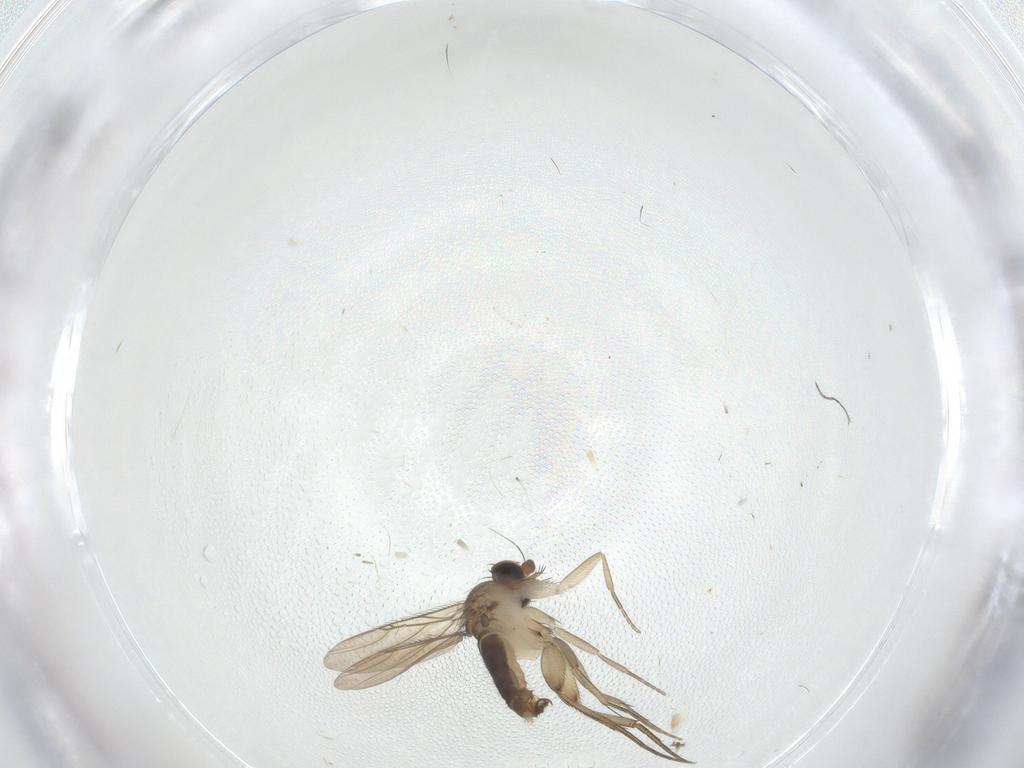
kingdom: Animalia
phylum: Arthropoda
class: Insecta
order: Diptera
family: Phoridae
